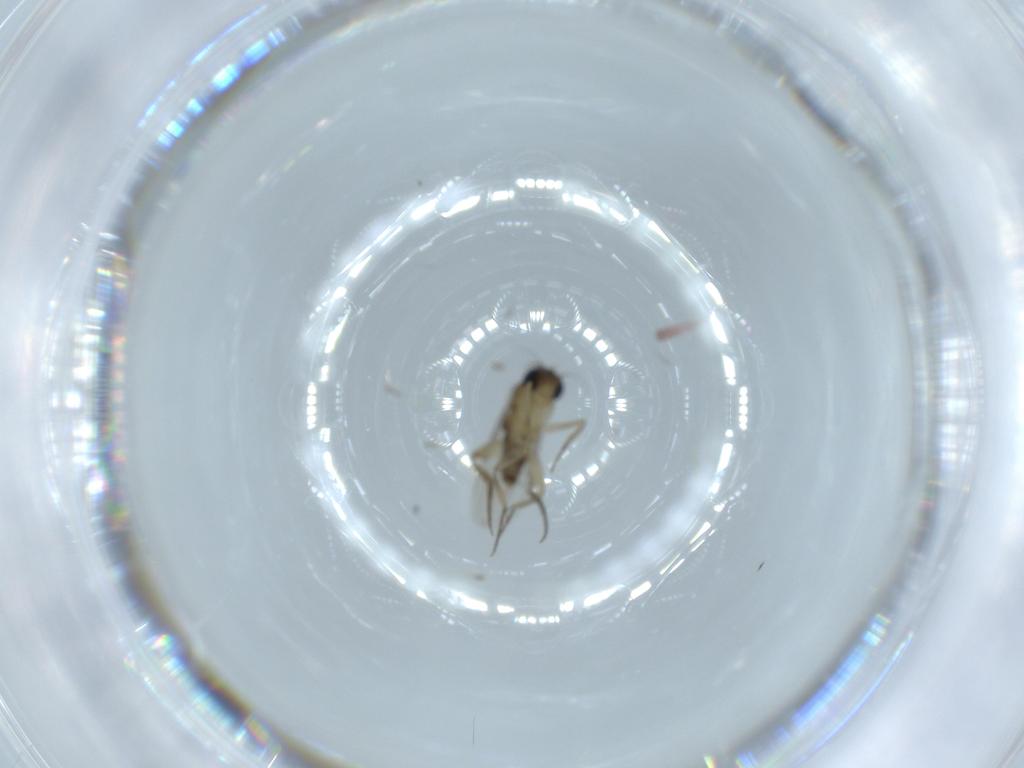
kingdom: Animalia
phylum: Arthropoda
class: Insecta
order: Diptera
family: Phoridae
